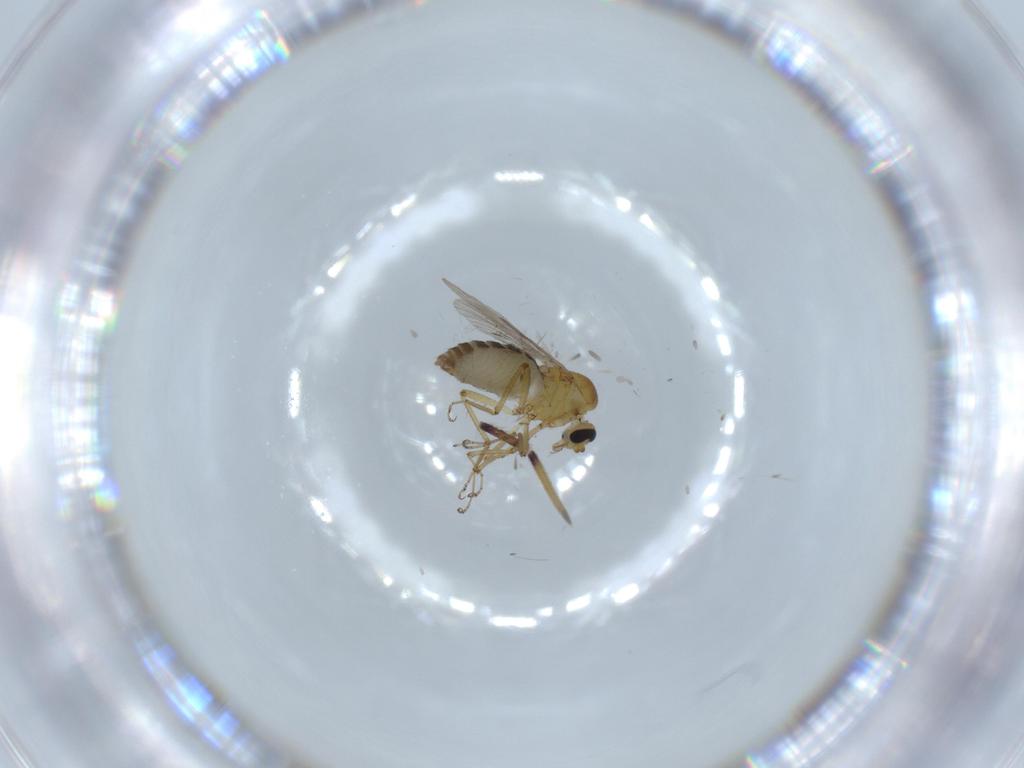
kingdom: Animalia
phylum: Arthropoda
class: Insecta
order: Diptera
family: Ceratopogonidae
